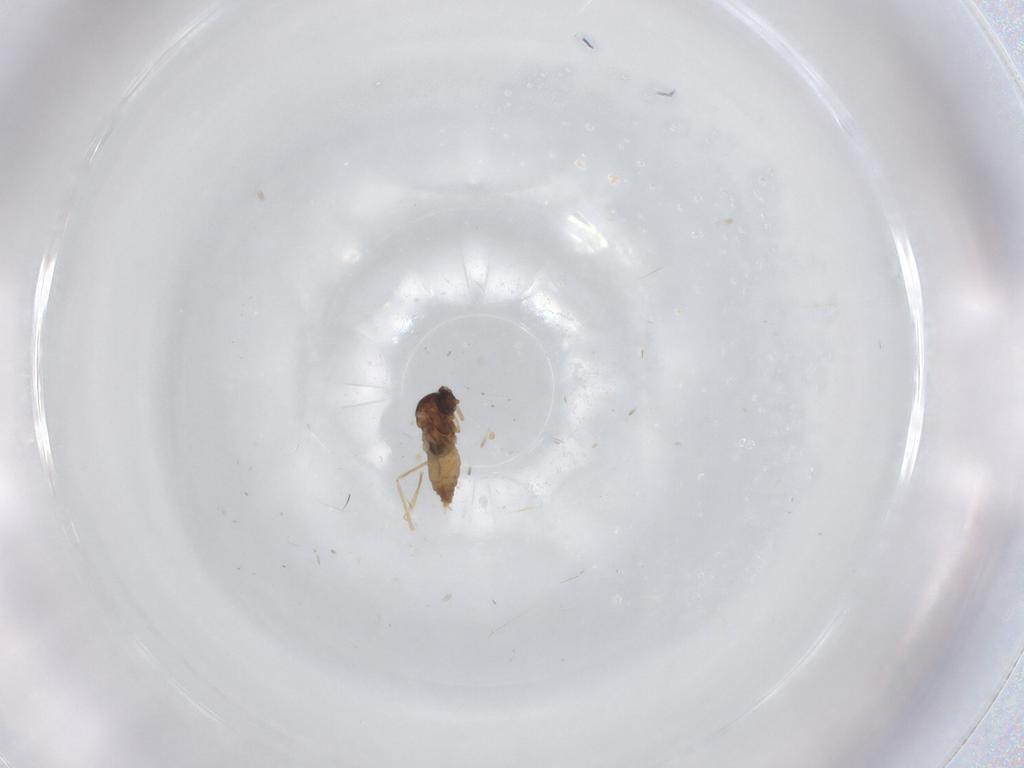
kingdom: Animalia
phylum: Arthropoda
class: Insecta
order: Diptera
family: Cecidomyiidae
